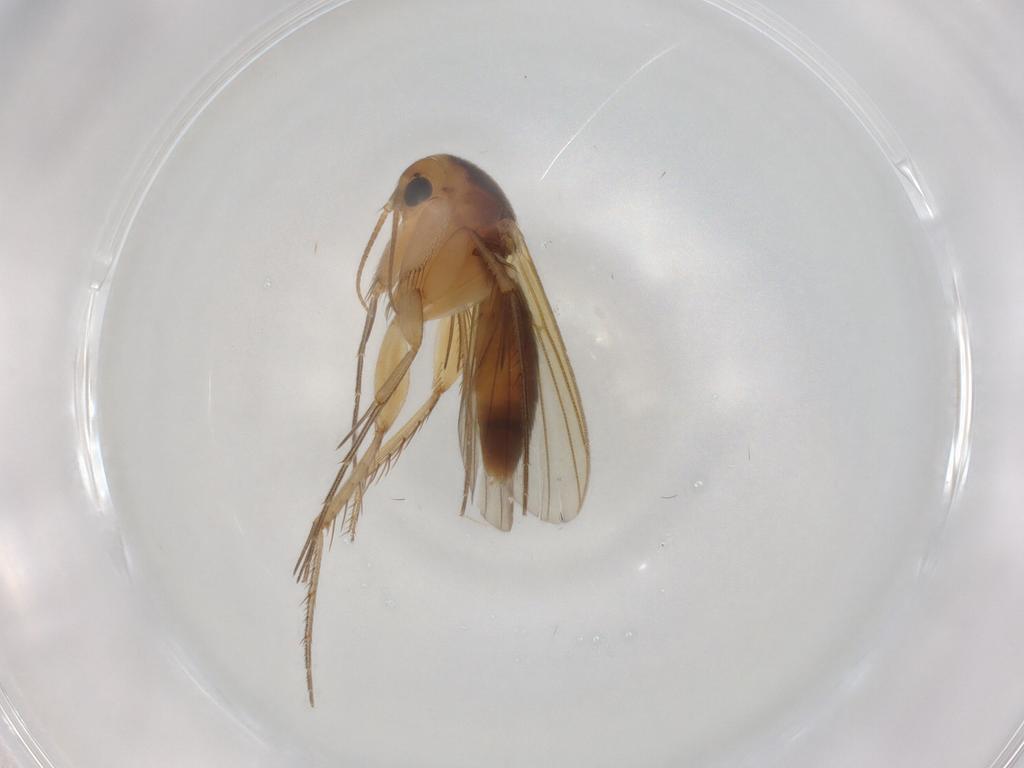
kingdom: Animalia
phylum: Arthropoda
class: Insecta
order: Diptera
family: Mycetophilidae
